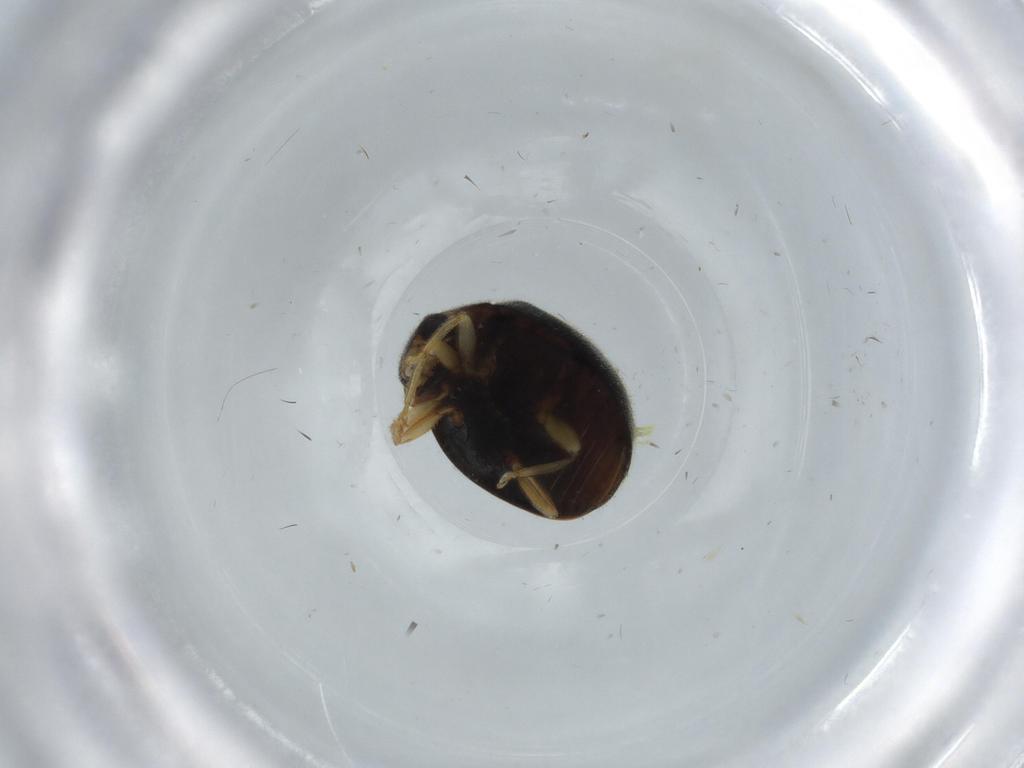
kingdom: Animalia
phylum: Arthropoda
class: Insecta
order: Coleoptera
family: Coccinellidae
